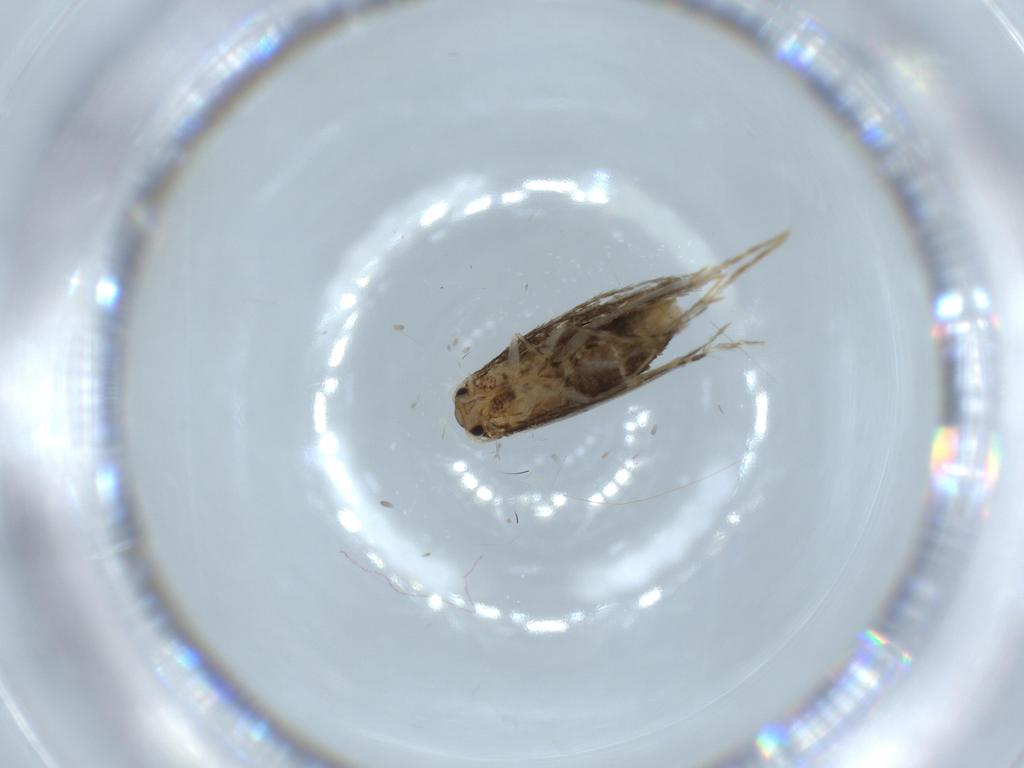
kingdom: Animalia
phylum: Arthropoda
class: Insecta
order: Lepidoptera
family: Incurvariidae
